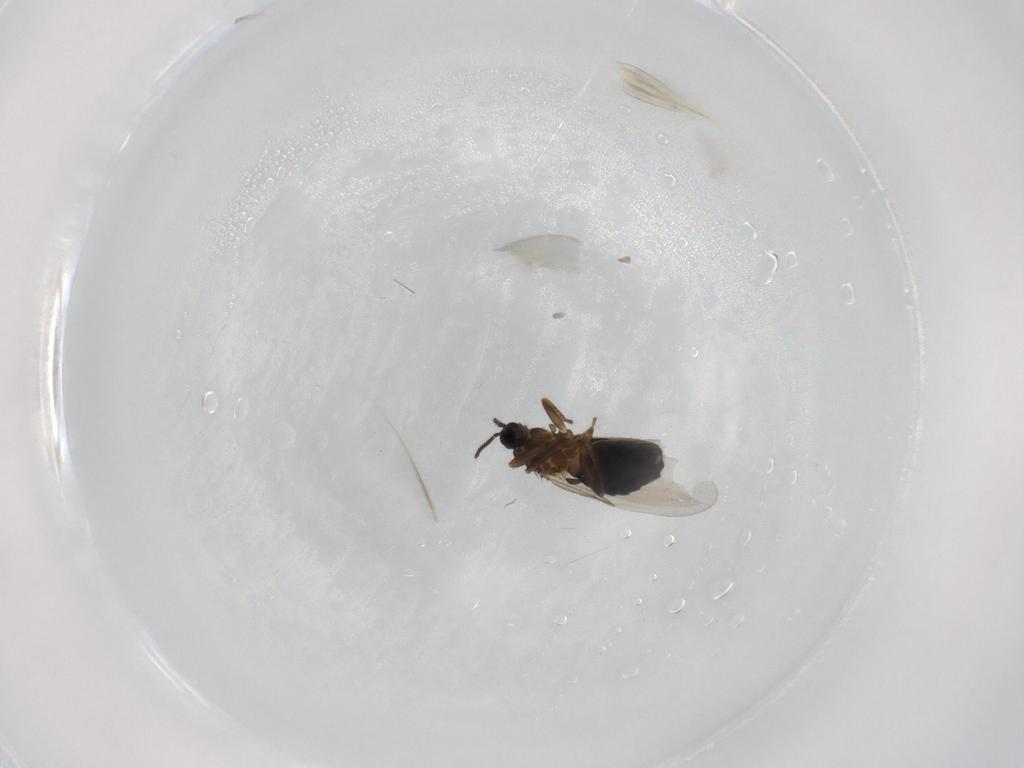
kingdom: Animalia
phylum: Arthropoda
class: Insecta
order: Diptera
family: Scatopsidae
